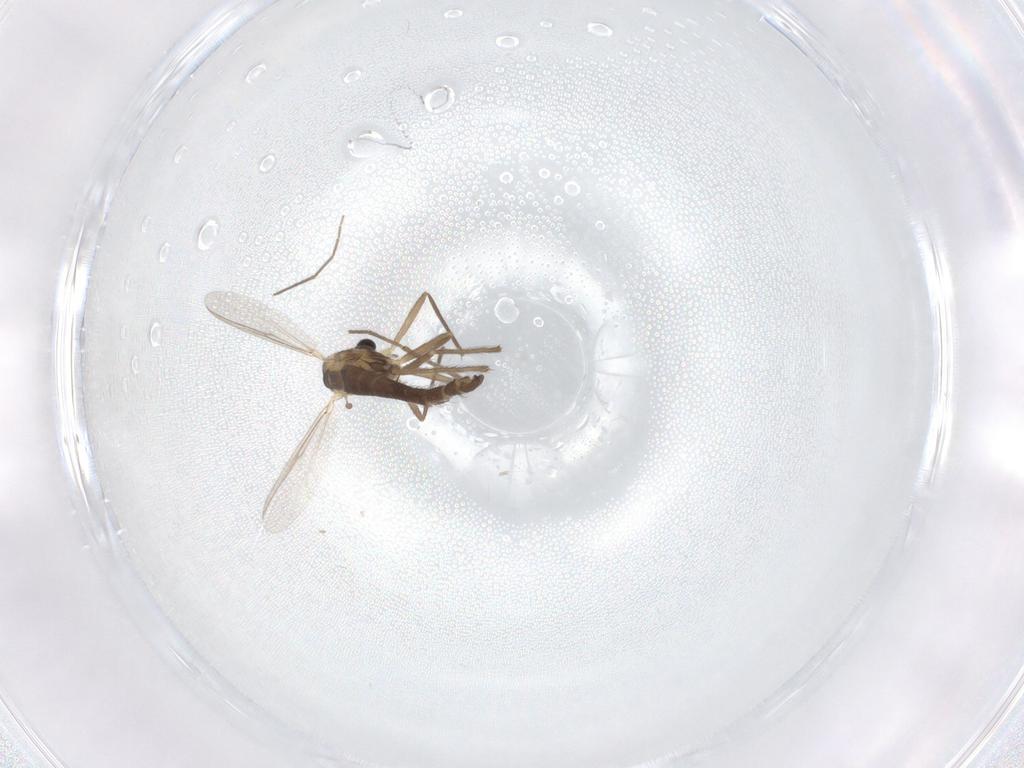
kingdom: Animalia
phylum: Arthropoda
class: Insecta
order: Diptera
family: Chironomidae
